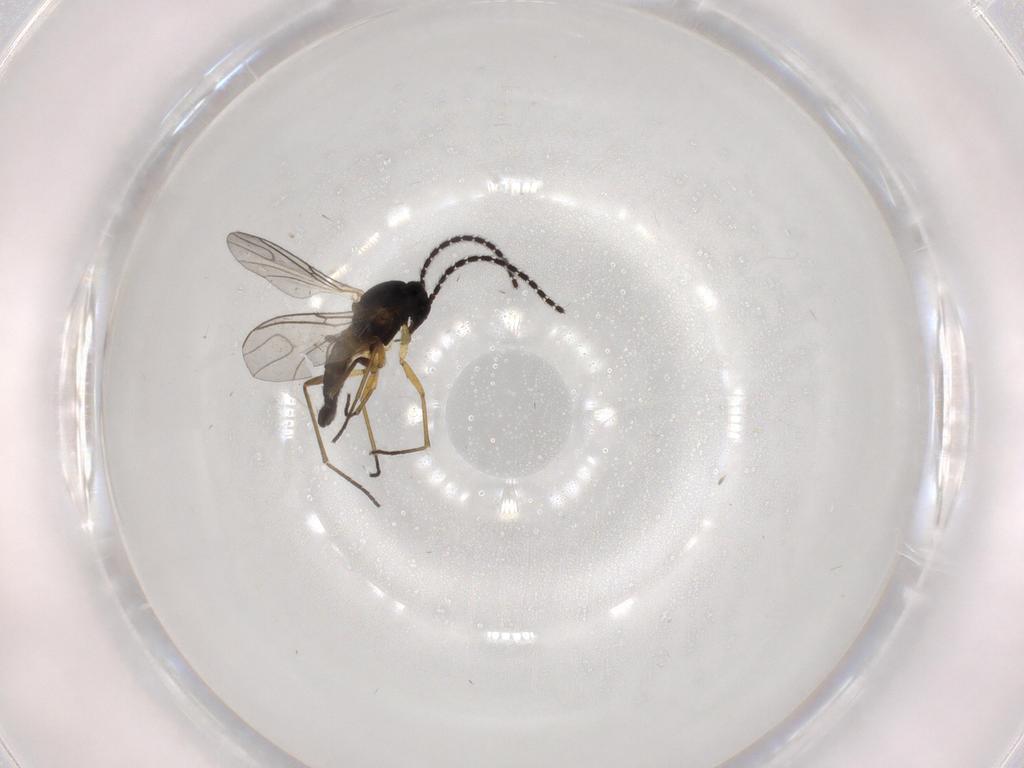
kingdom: Animalia
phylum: Arthropoda
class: Insecta
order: Diptera
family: Sciaridae
